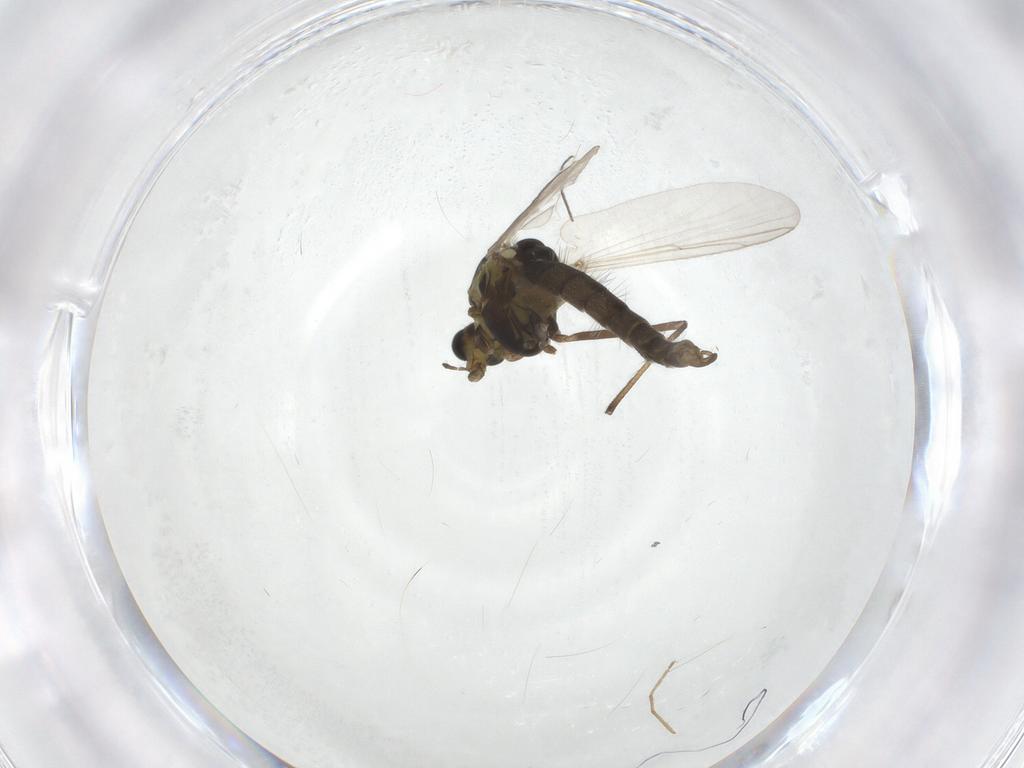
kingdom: Animalia
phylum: Arthropoda
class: Insecta
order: Diptera
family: Chironomidae
